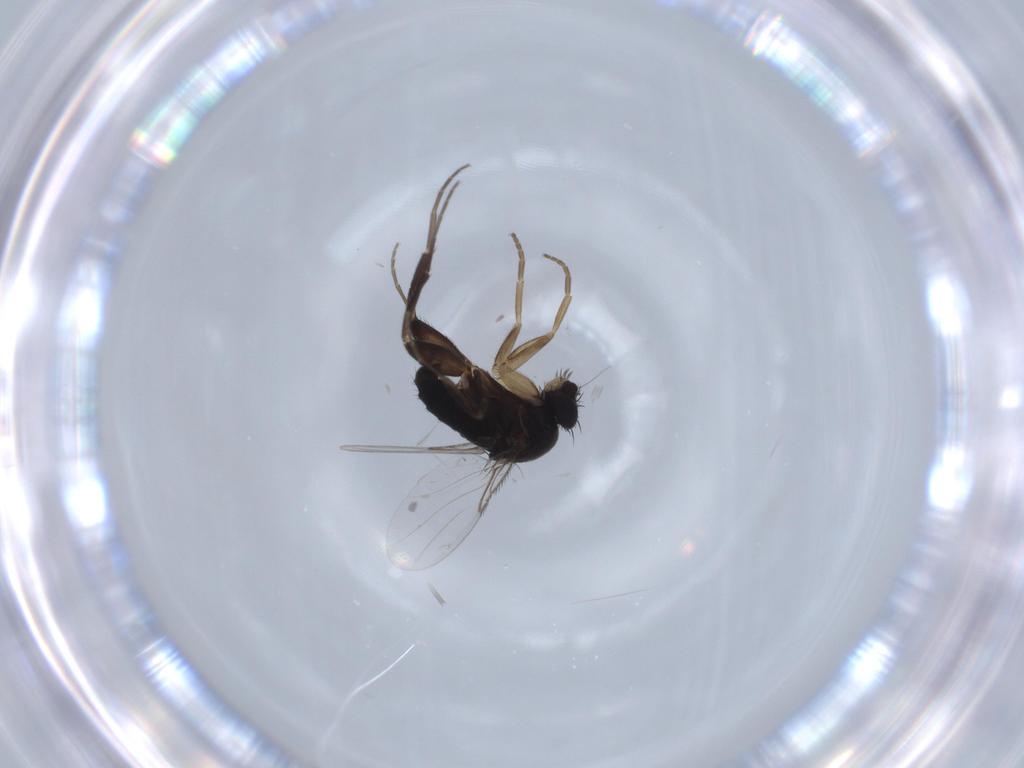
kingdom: Animalia
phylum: Arthropoda
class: Insecta
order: Diptera
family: Phoridae
